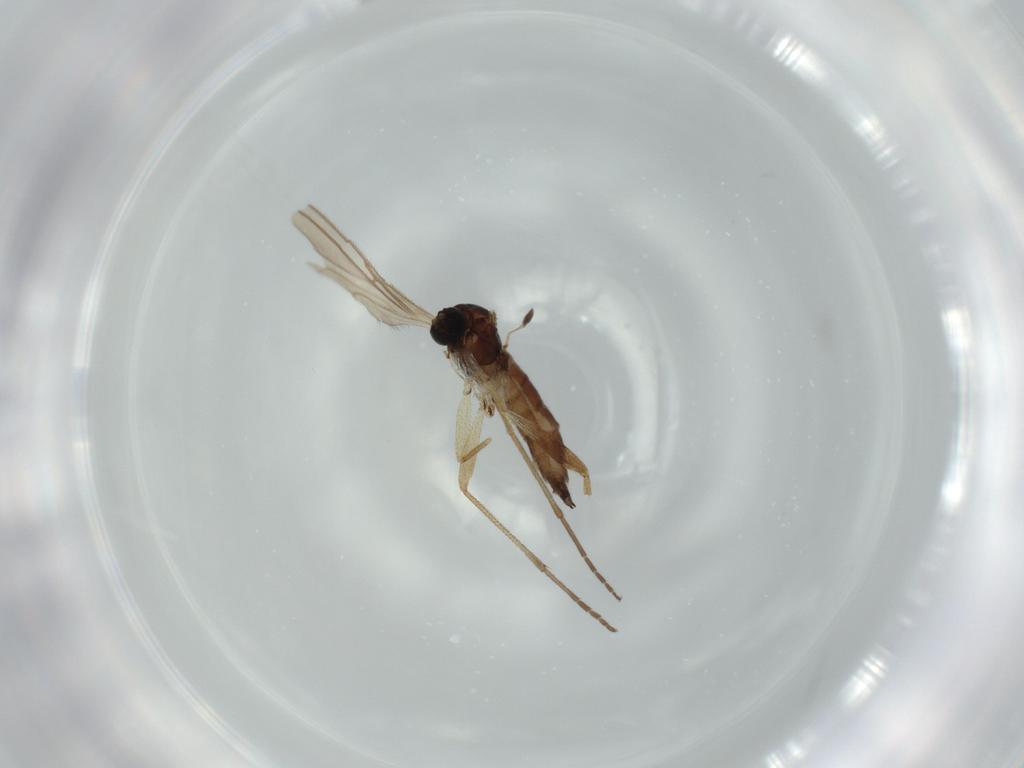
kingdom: Animalia
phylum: Arthropoda
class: Insecta
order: Diptera
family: Sciaridae
